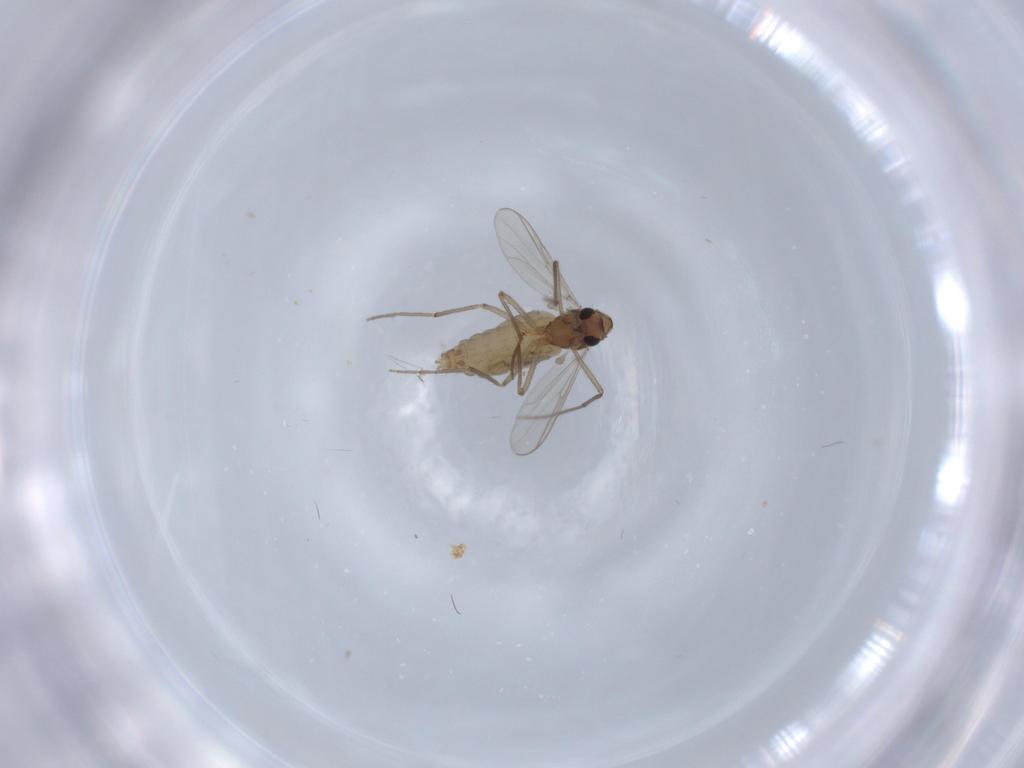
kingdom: Animalia
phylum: Arthropoda
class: Insecta
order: Diptera
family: Chironomidae
